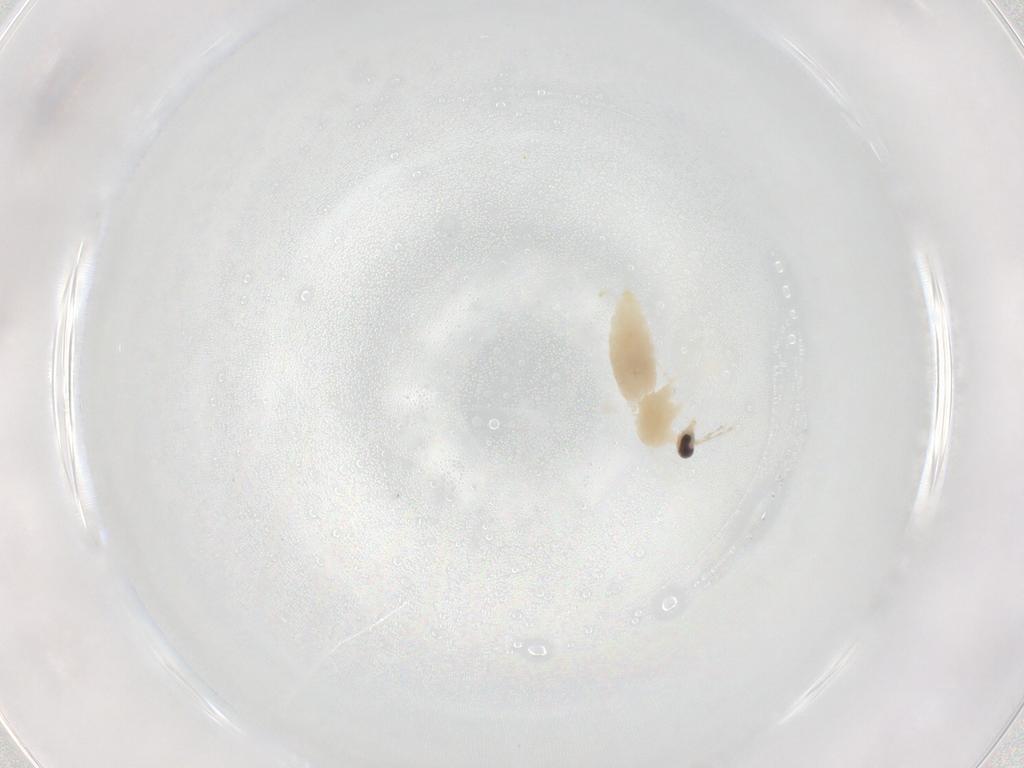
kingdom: Animalia
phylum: Arthropoda
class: Insecta
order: Diptera
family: Cecidomyiidae
